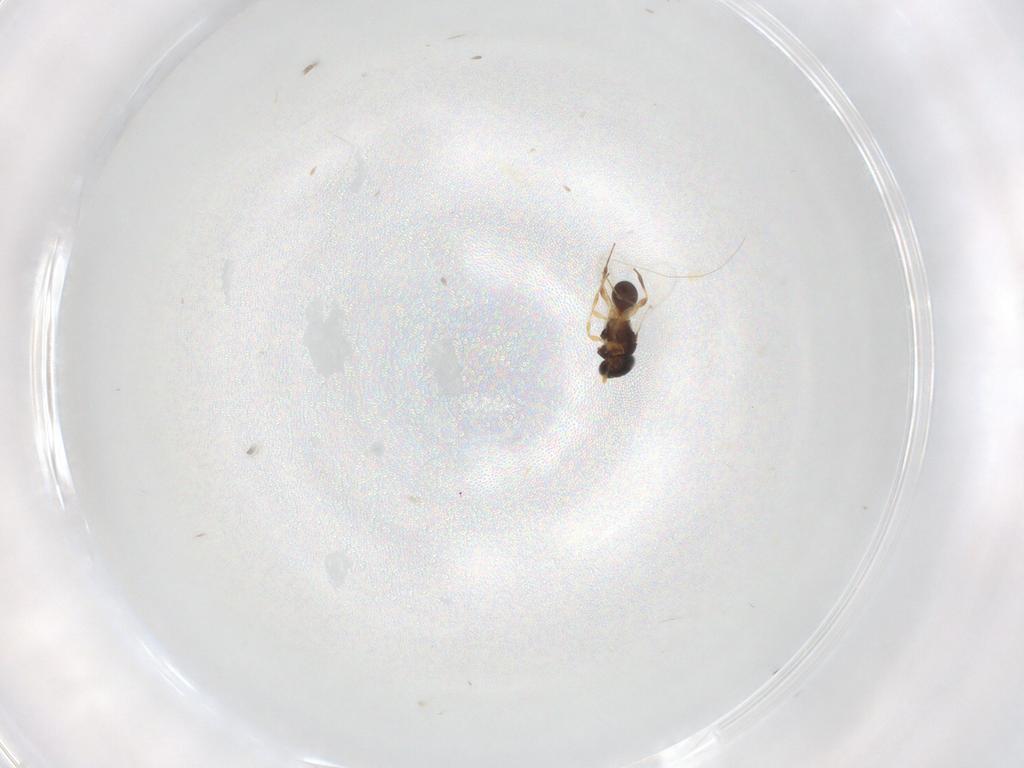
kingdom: Animalia
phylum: Arthropoda
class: Insecta
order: Hymenoptera
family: Platygastridae
